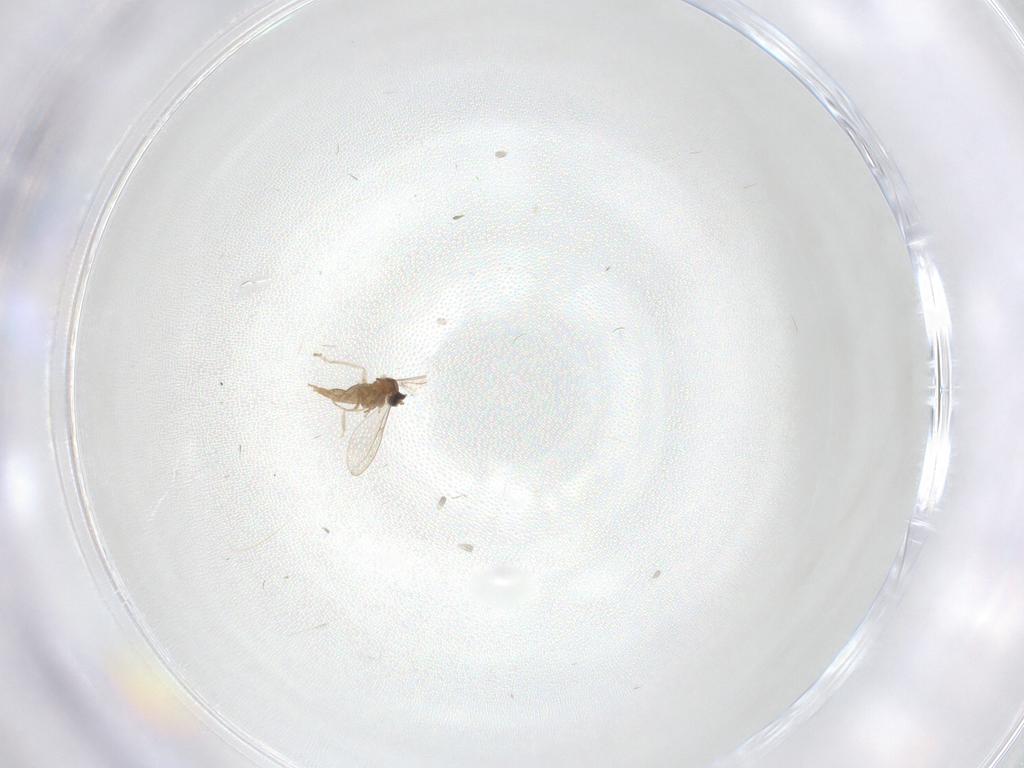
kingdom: Animalia
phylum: Arthropoda
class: Insecta
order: Diptera
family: Cecidomyiidae
